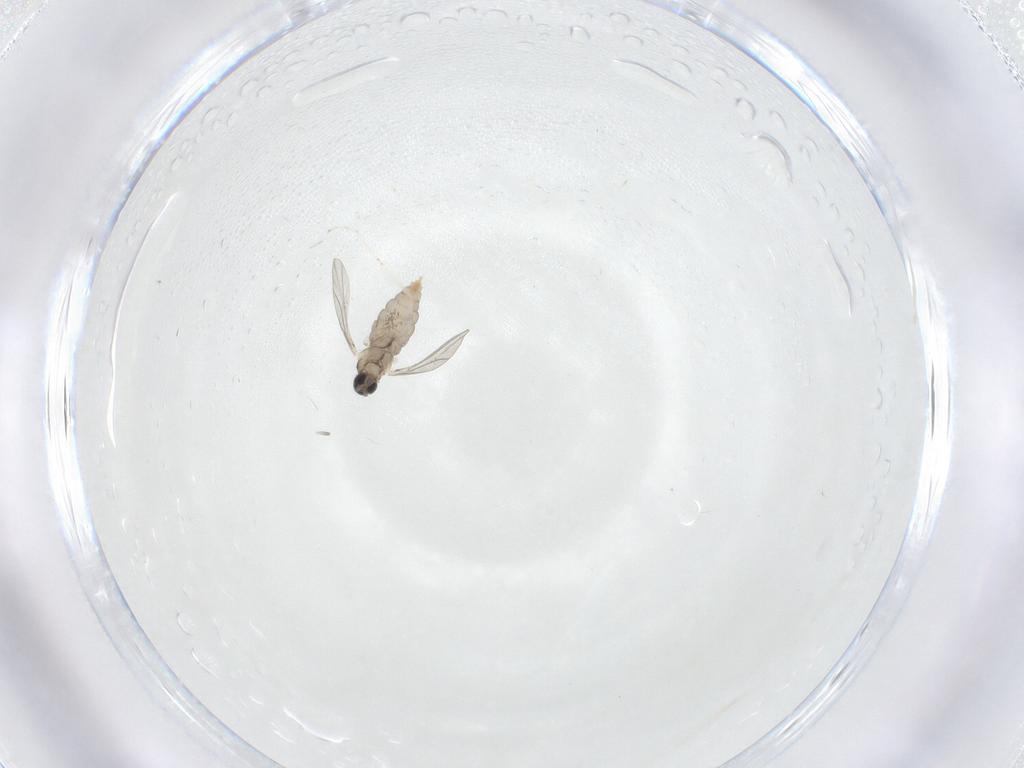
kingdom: Animalia
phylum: Arthropoda
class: Insecta
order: Diptera
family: Cecidomyiidae
